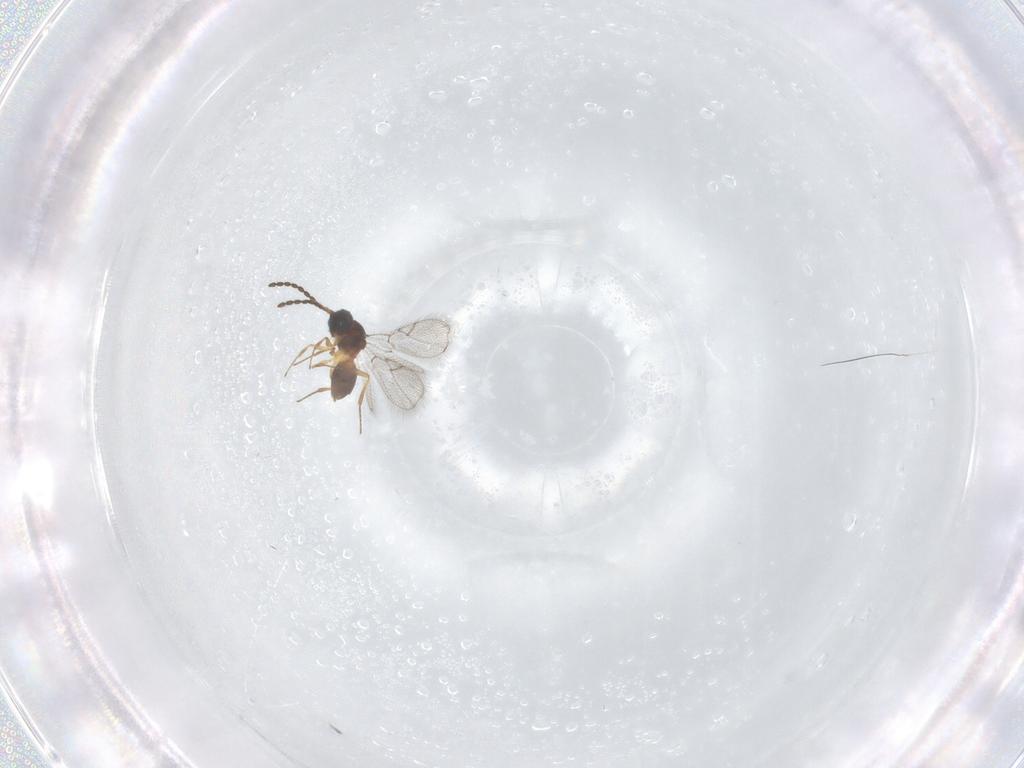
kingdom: Animalia
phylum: Arthropoda
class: Insecta
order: Hymenoptera
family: Figitidae
